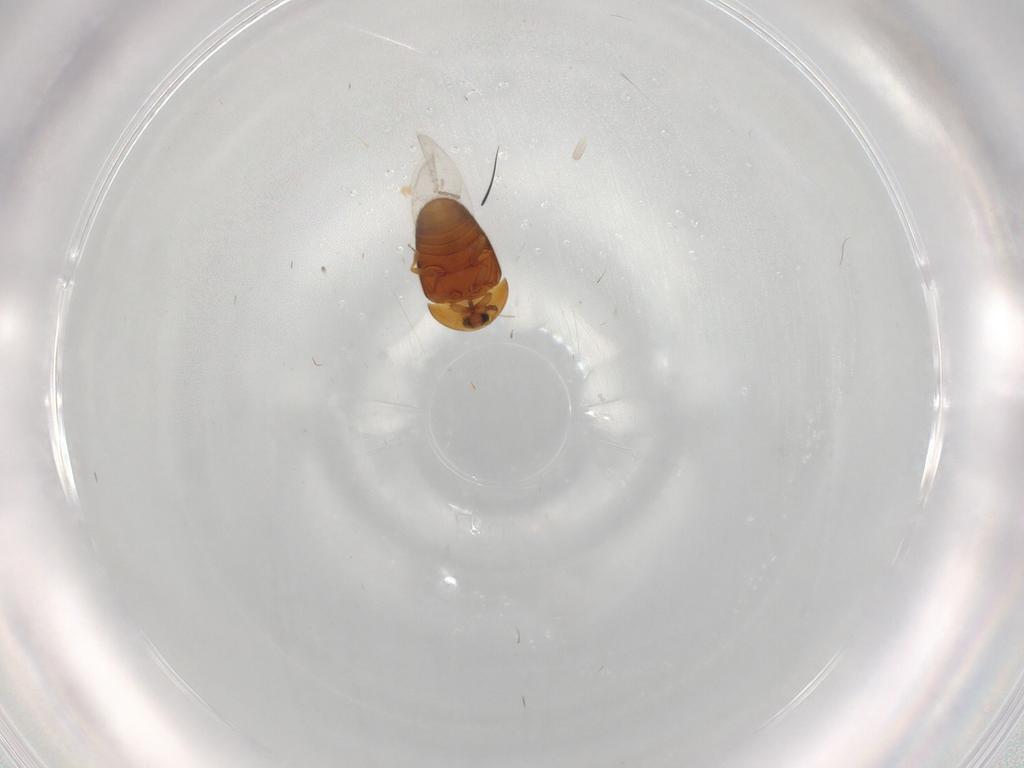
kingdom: Animalia
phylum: Arthropoda
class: Insecta
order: Coleoptera
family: Corylophidae
